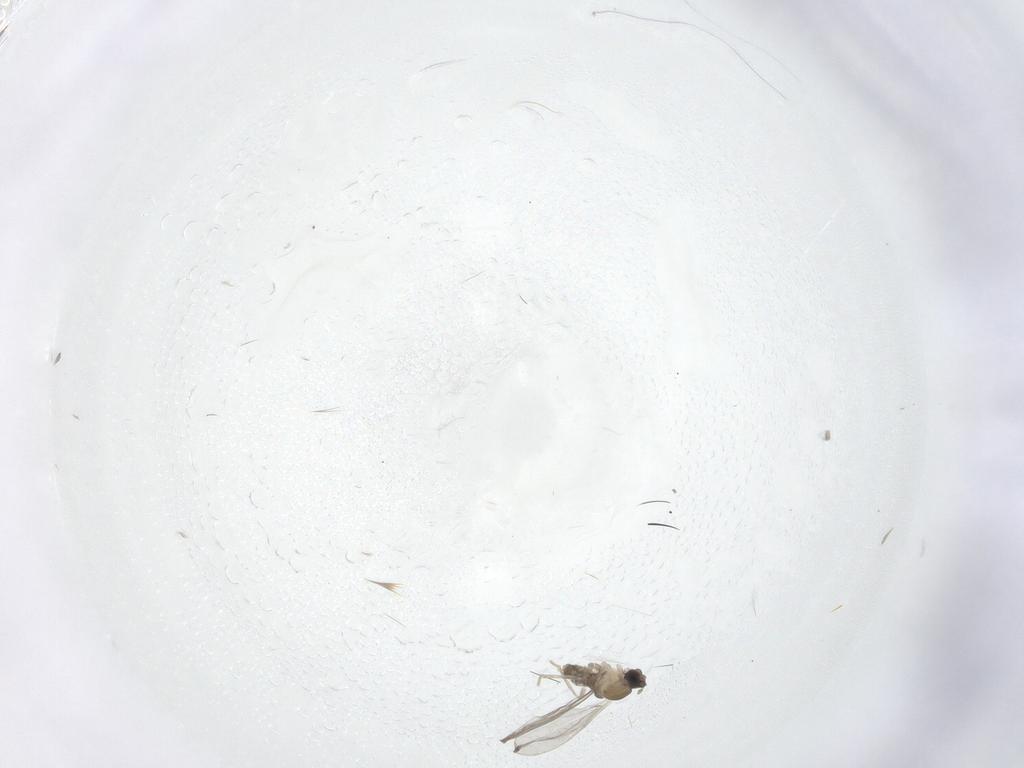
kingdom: Animalia
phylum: Arthropoda
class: Insecta
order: Diptera
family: Cecidomyiidae
